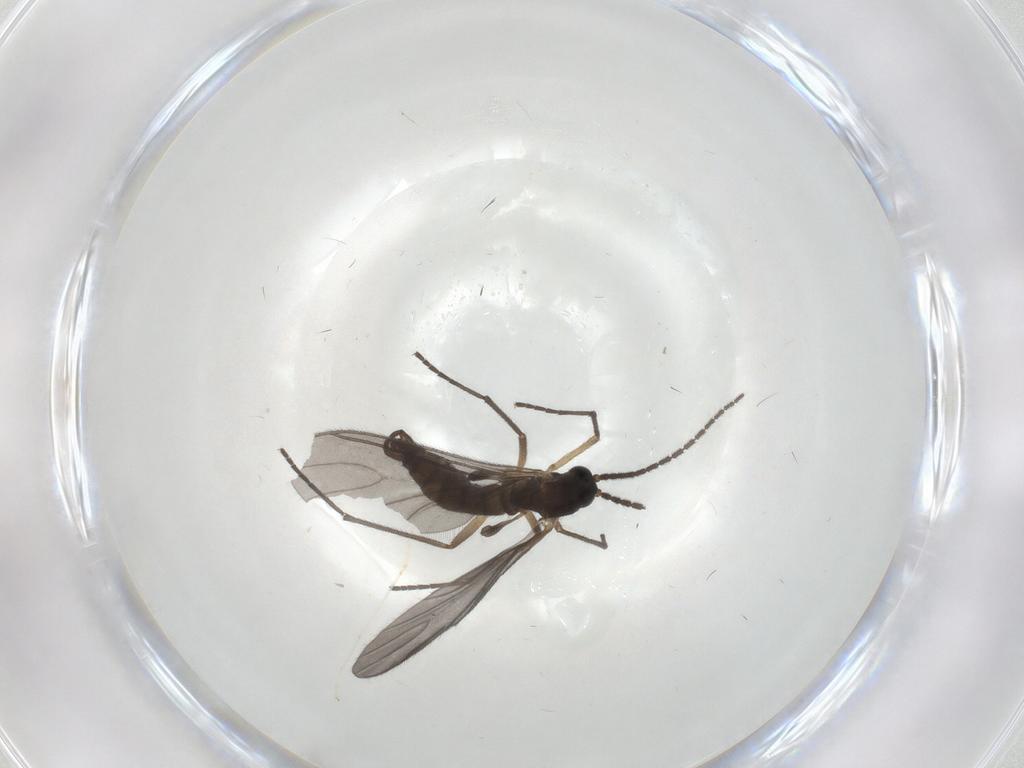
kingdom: Animalia
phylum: Arthropoda
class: Insecta
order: Diptera
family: Sciaridae
